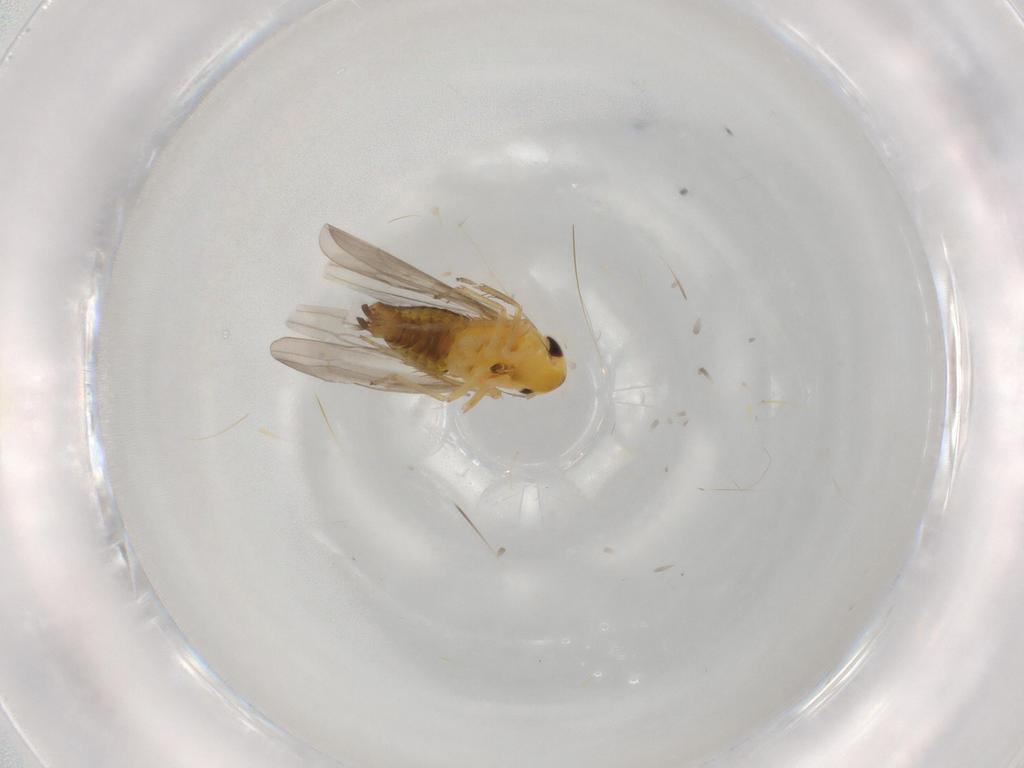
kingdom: Animalia
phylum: Arthropoda
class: Insecta
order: Hemiptera
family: Cicadellidae
